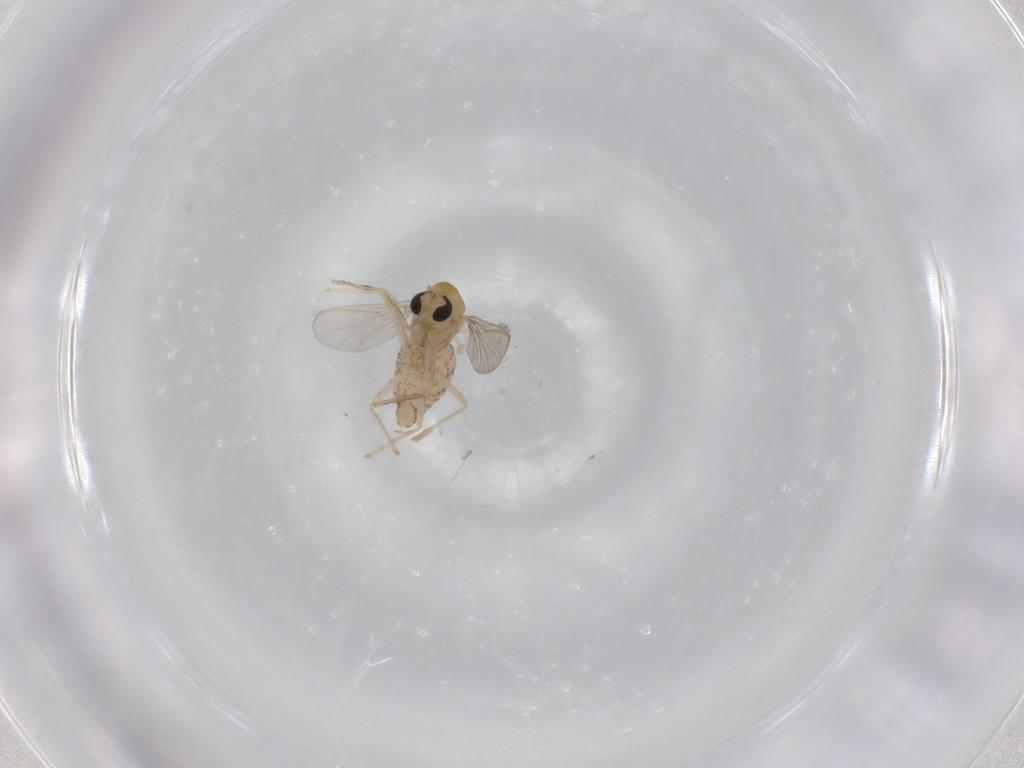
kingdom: Animalia
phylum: Arthropoda
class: Insecta
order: Diptera
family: Chironomidae
